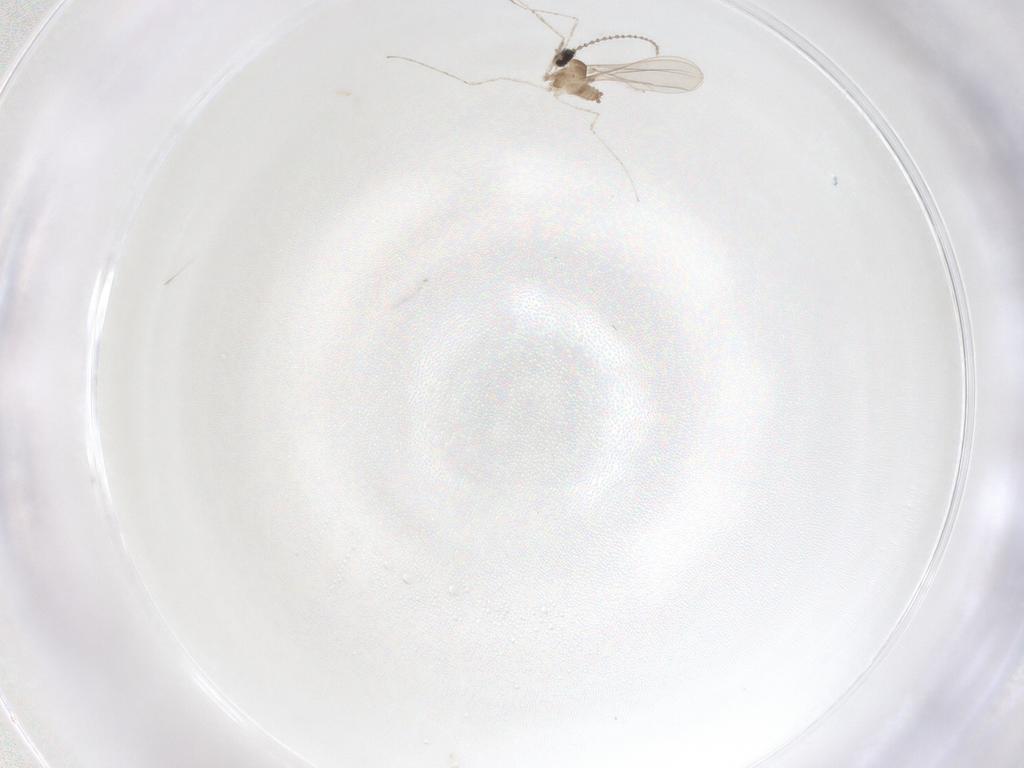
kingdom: Animalia
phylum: Arthropoda
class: Insecta
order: Diptera
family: Cecidomyiidae
